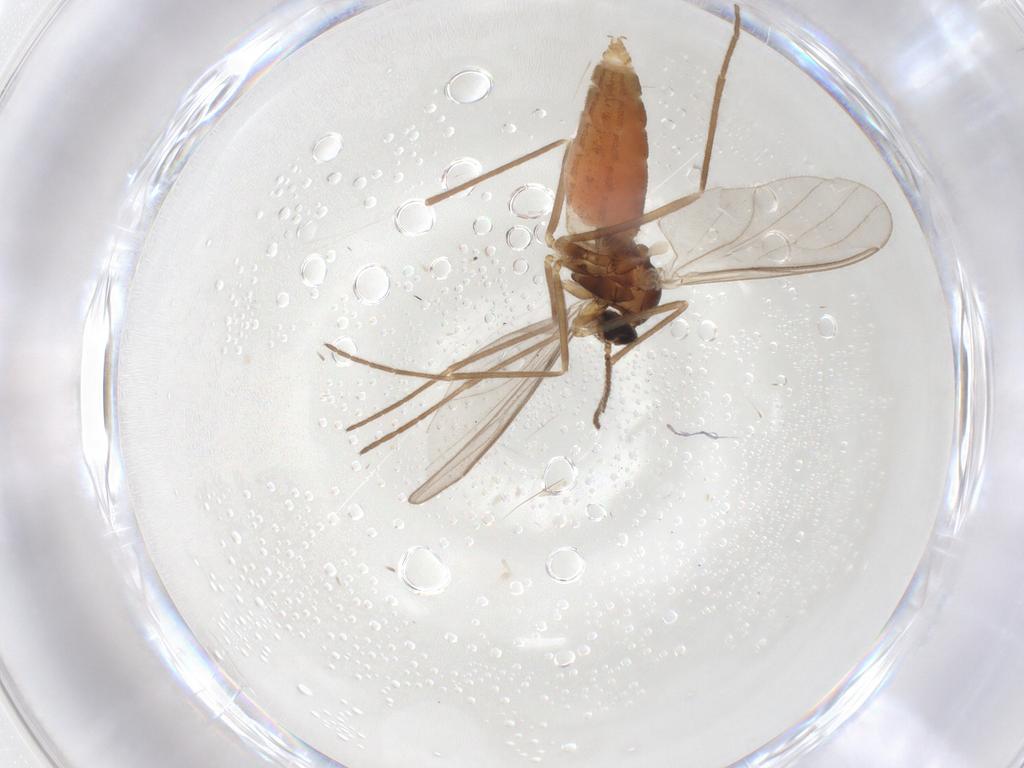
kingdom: Animalia
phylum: Arthropoda
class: Insecta
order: Diptera
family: Cecidomyiidae
